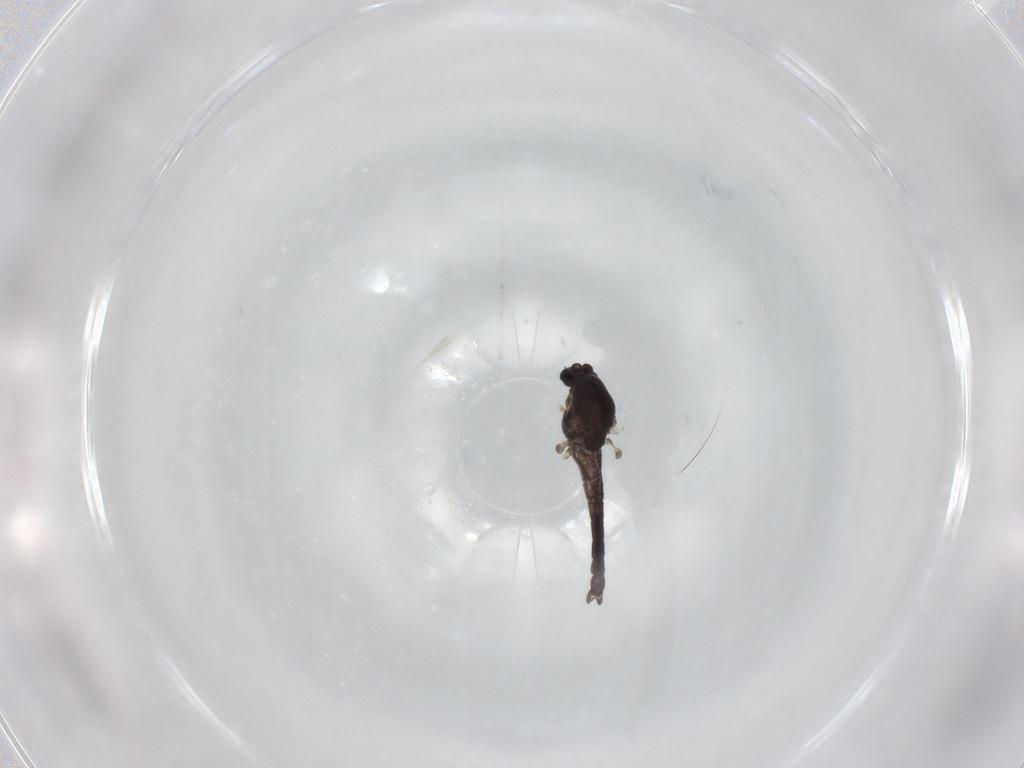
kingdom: Animalia
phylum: Arthropoda
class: Insecta
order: Diptera
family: Chironomidae
